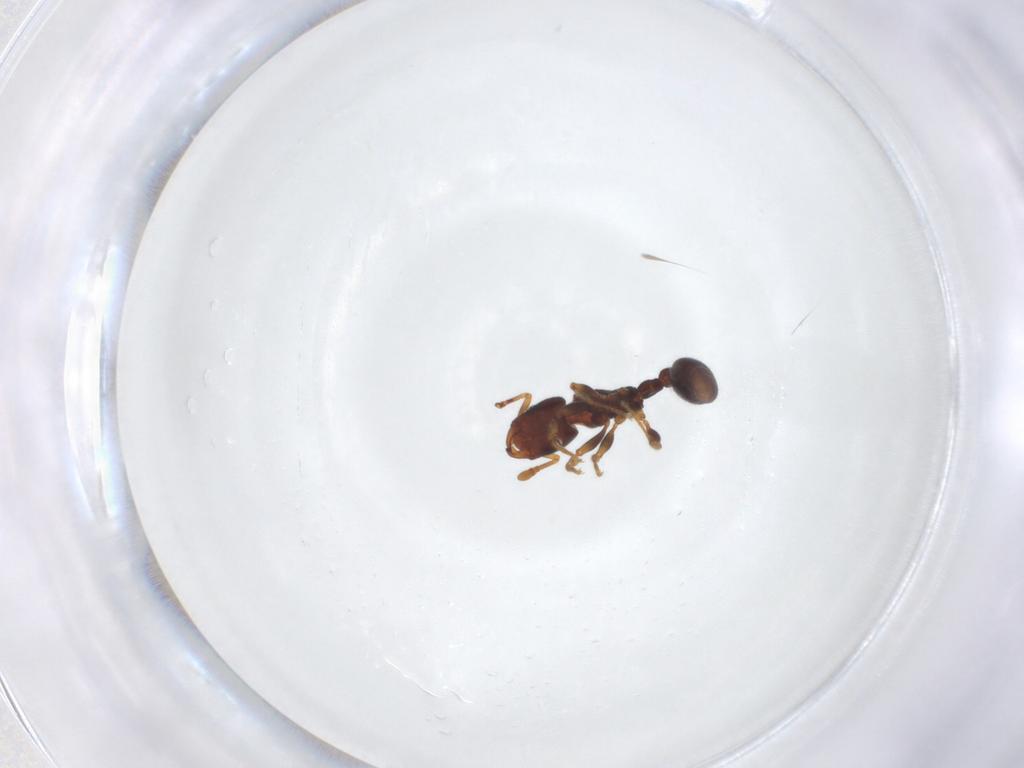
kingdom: Animalia
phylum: Arthropoda
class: Insecta
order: Hymenoptera
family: Formicidae
